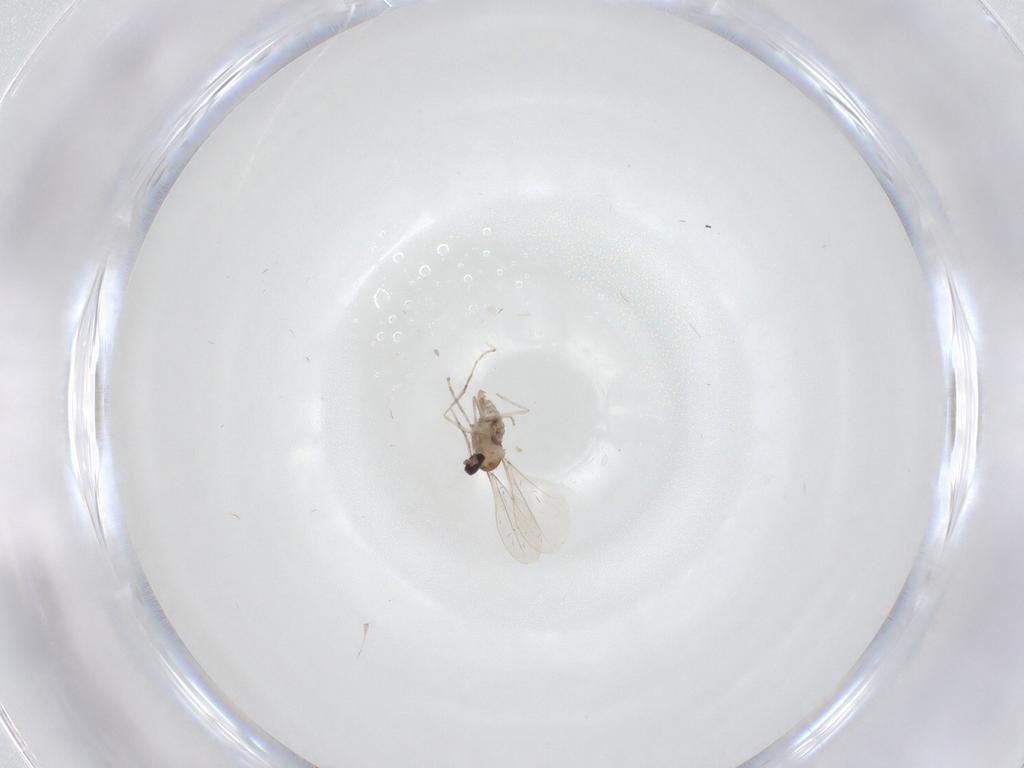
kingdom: Animalia
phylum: Arthropoda
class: Insecta
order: Diptera
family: Cecidomyiidae
